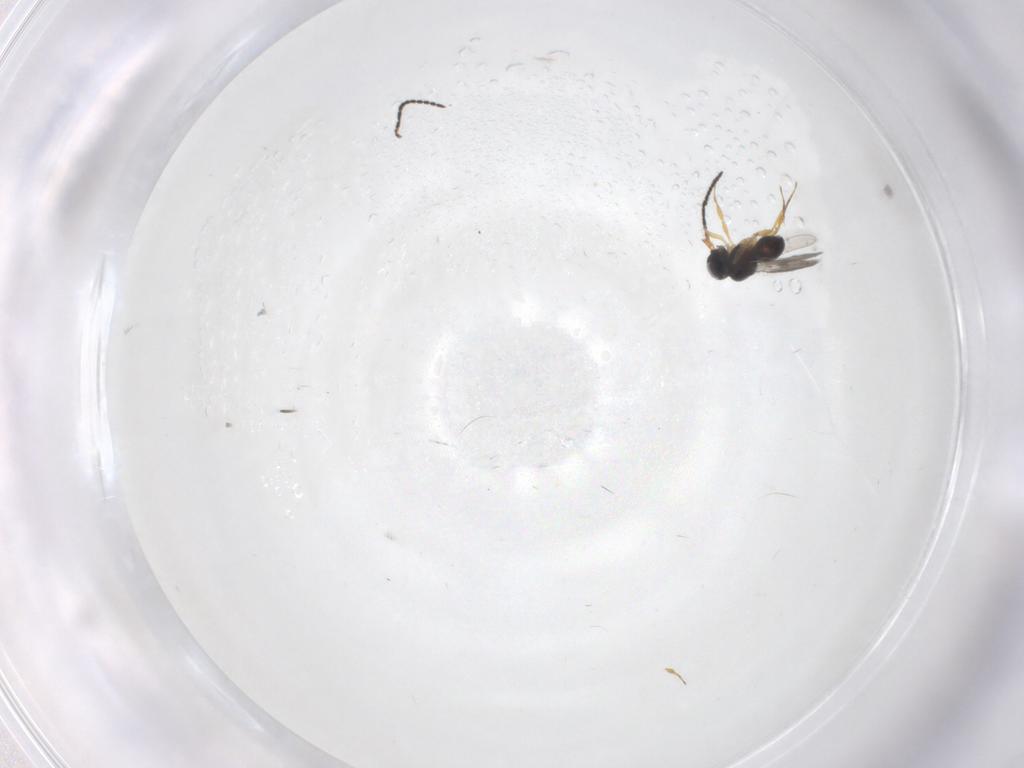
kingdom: Animalia
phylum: Arthropoda
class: Insecta
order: Hymenoptera
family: Scelionidae
